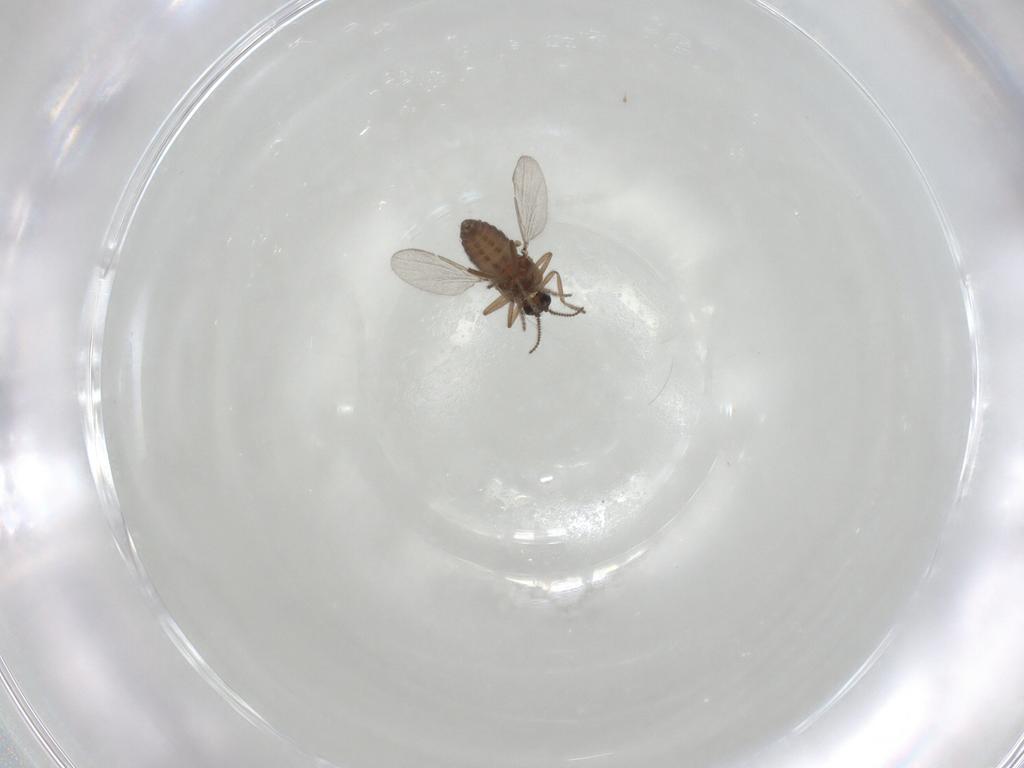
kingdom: Animalia
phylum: Arthropoda
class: Insecta
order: Diptera
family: Ceratopogonidae
